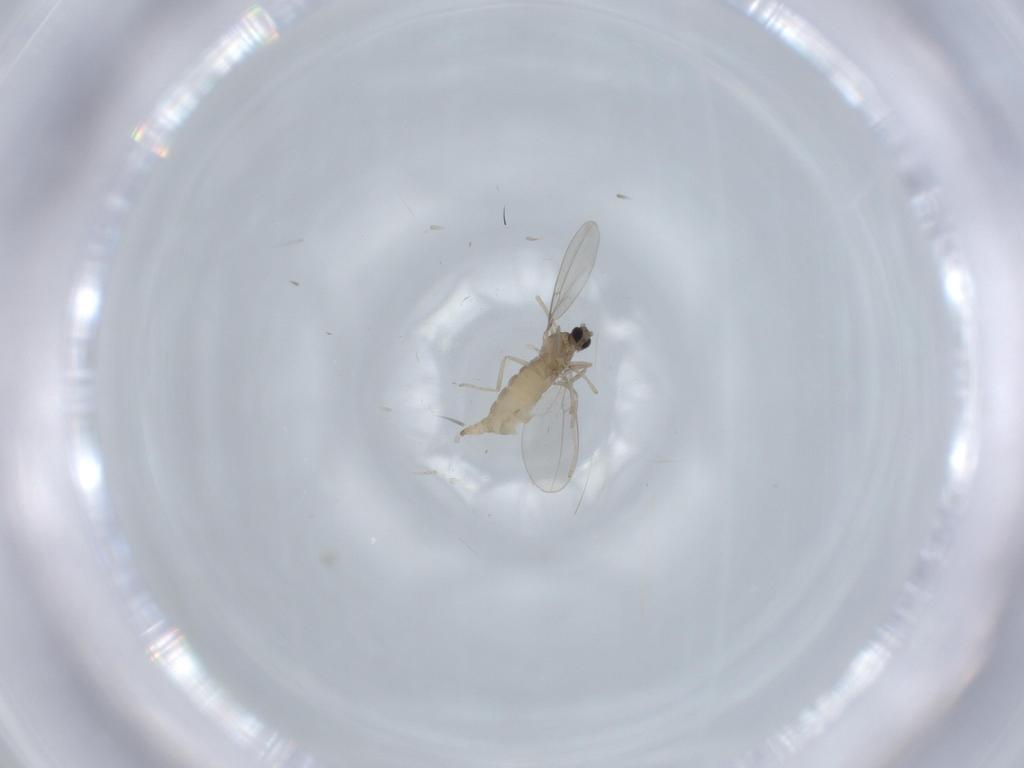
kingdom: Animalia
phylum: Arthropoda
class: Insecta
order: Diptera
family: Cecidomyiidae
